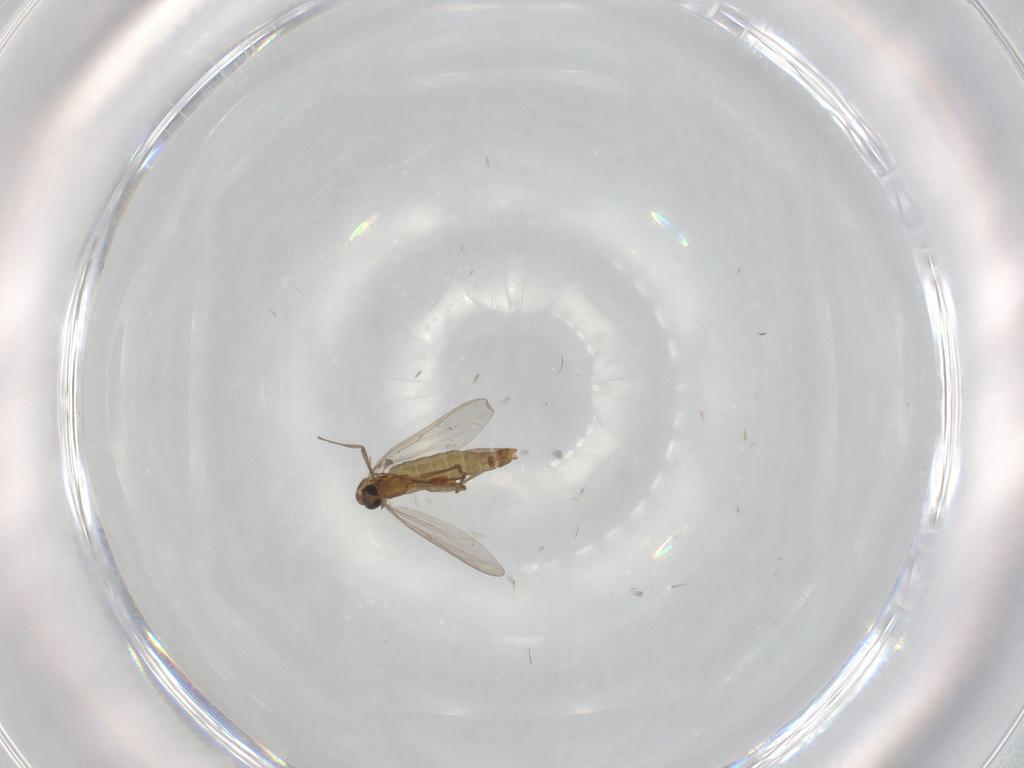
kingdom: Animalia
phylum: Arthropoda
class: Insecta
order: Diptera
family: Chironomidae
